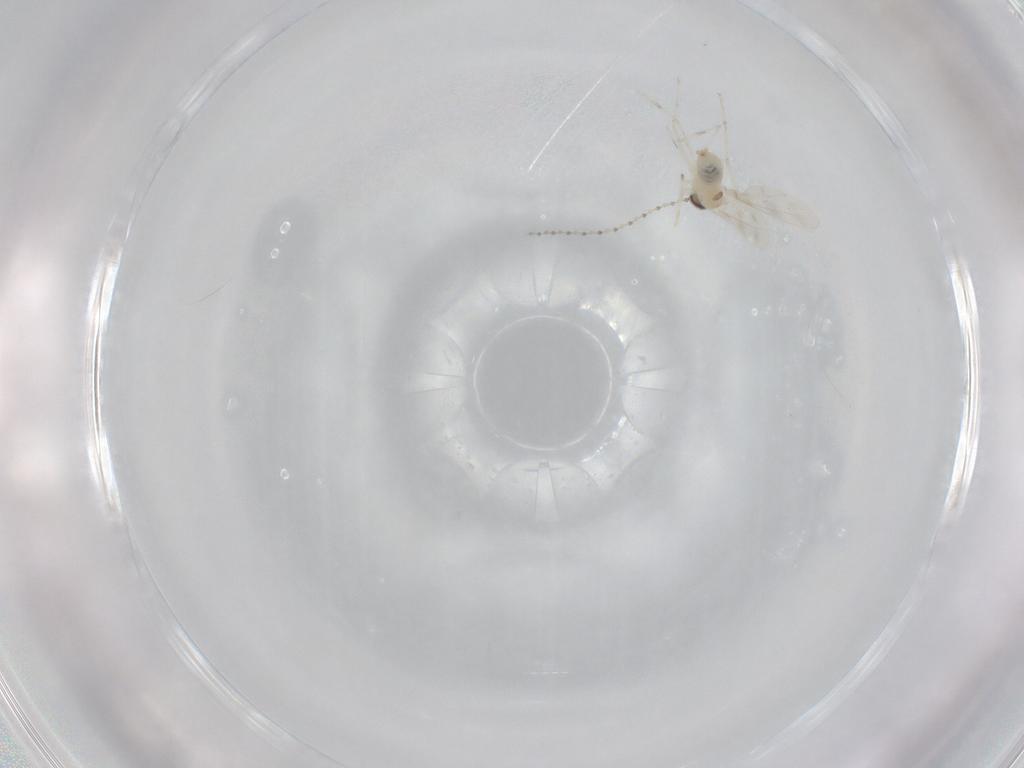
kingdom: Animalia
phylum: Arthropoda
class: Insecta
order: Diptera
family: Cecidomyiidae
